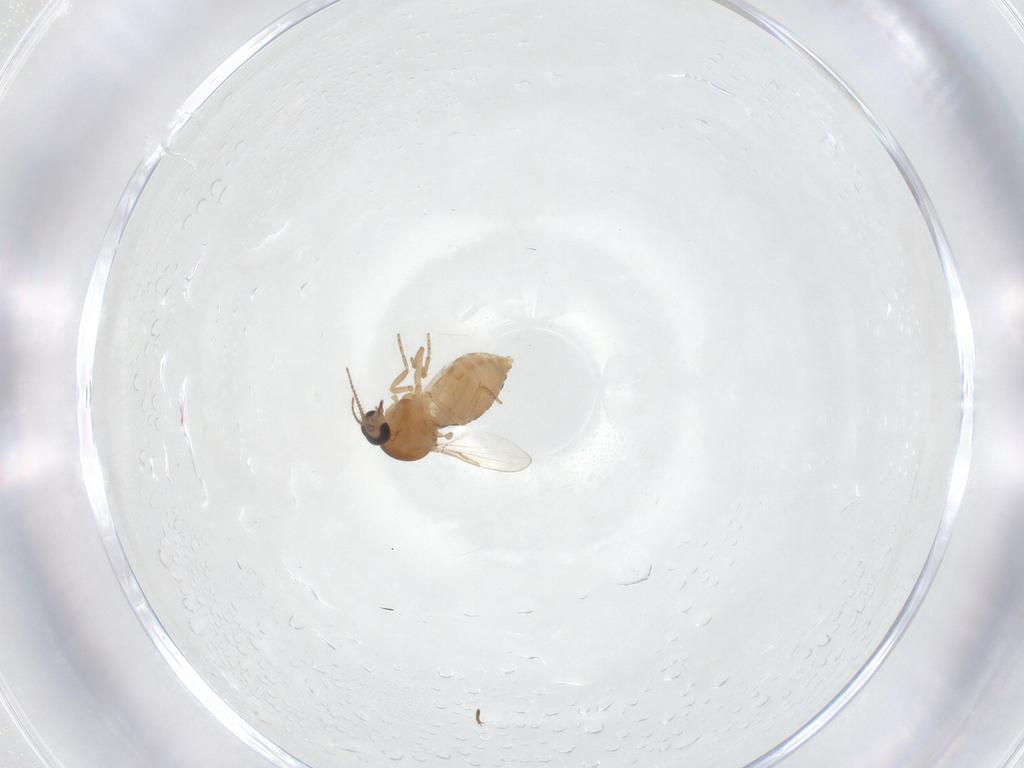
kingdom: Animalia
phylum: Arthropoda
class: Insecta
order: Diptera
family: Ceratopogonidae
